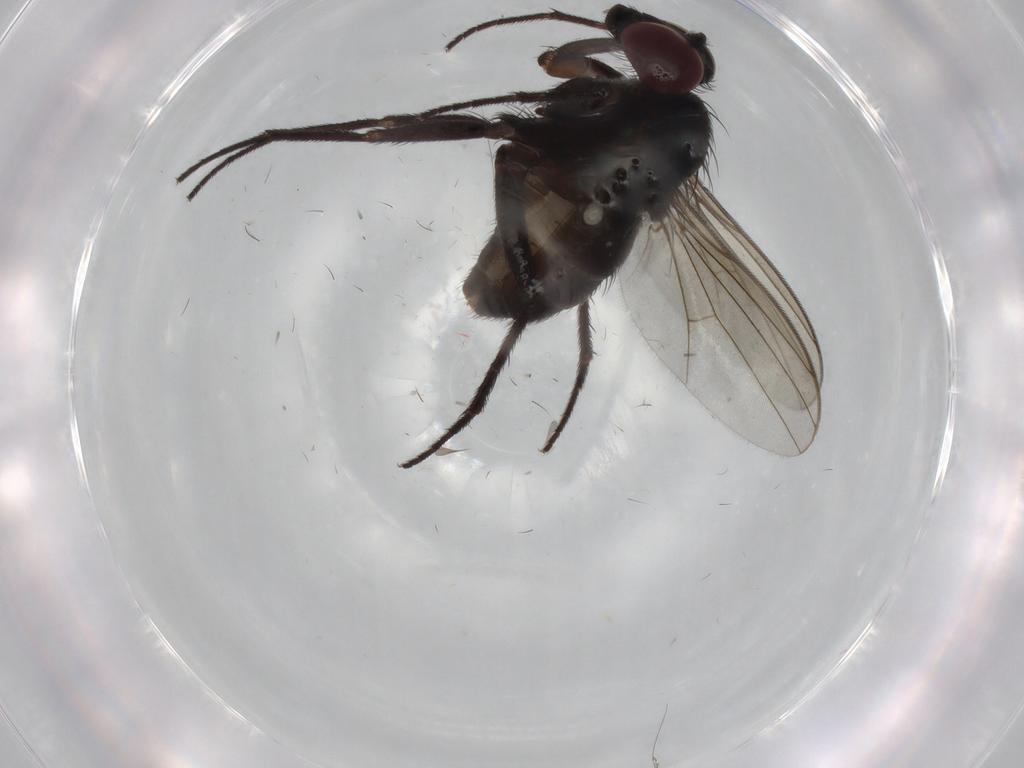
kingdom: Animalia
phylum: Arthropoda
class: Insecta
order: Diptera
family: Dolichopodidae
